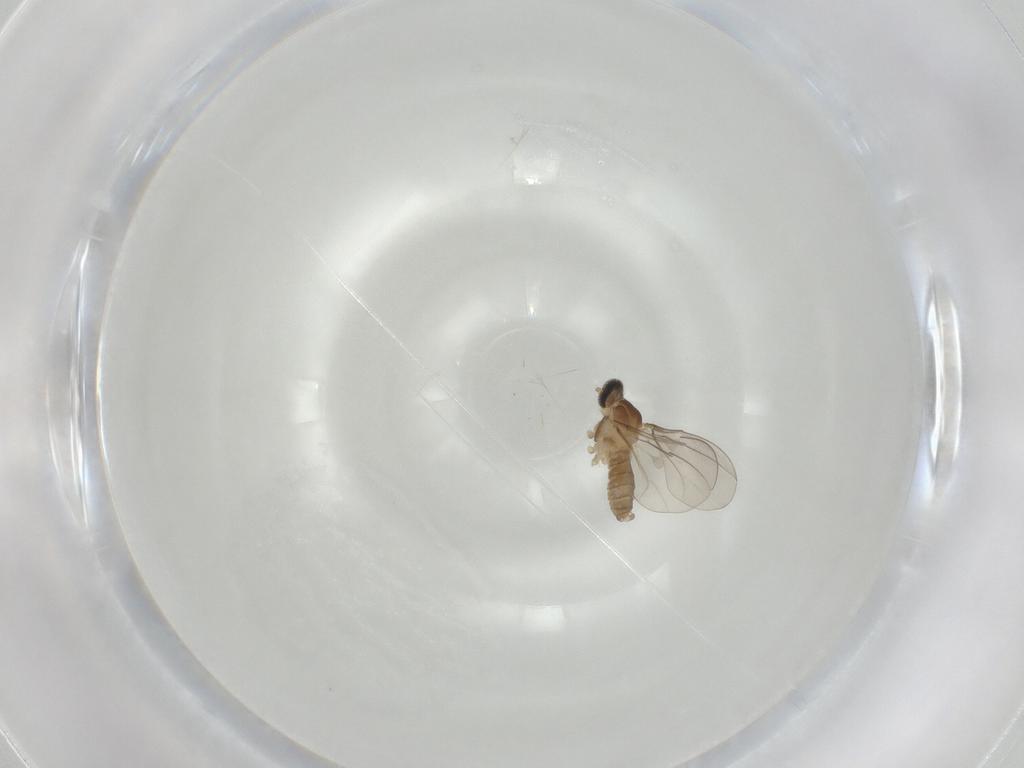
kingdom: Animalia
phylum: Arthropoda
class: Insecta
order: Diptera
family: Cecidomyiidae
